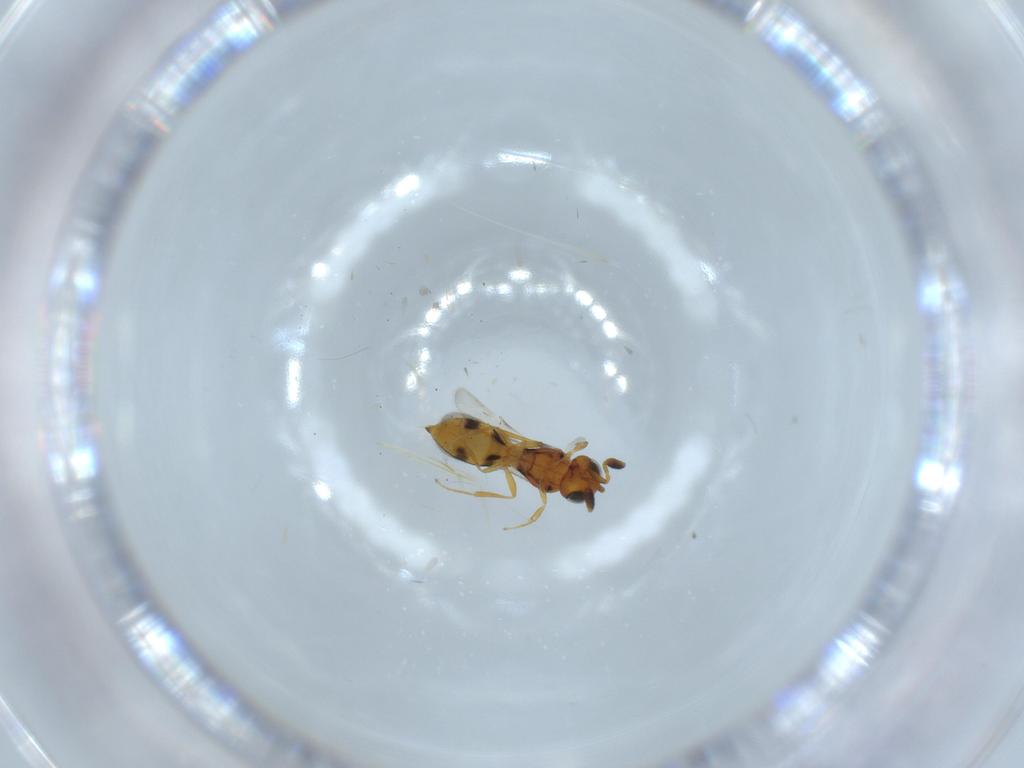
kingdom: Animalia
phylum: Arthropoda
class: Insecta
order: Hymenoptera
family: Scelionidae
